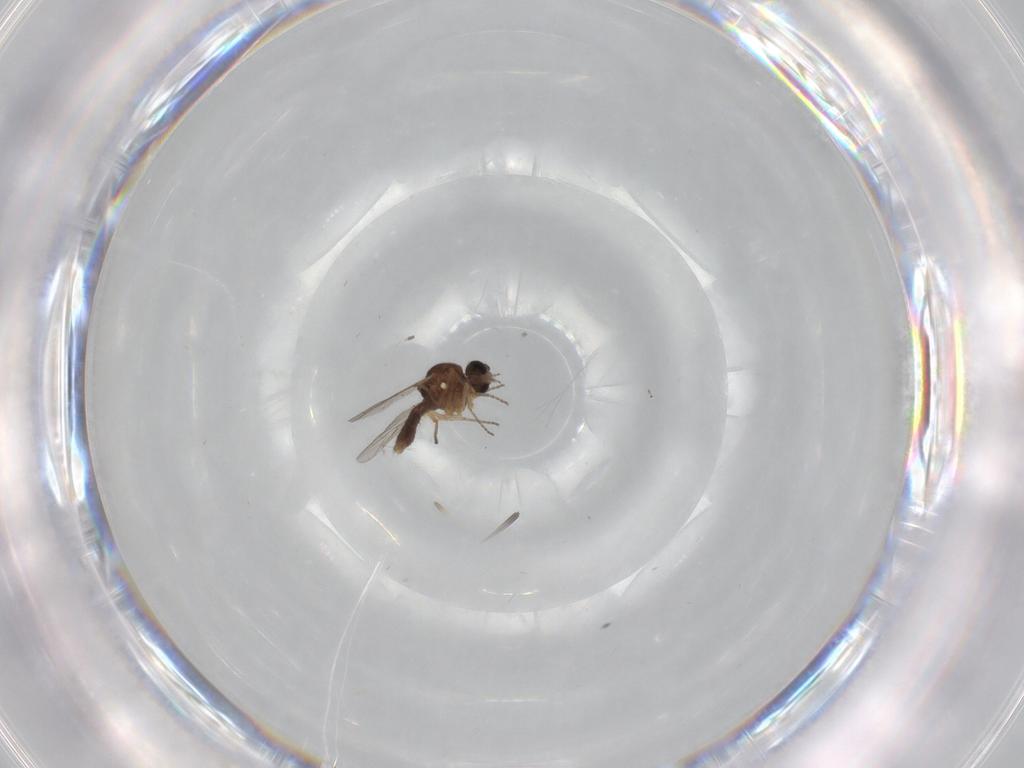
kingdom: Animalia
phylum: Arthropoda
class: Insecta
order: Diptera
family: Ceratopogonidae
